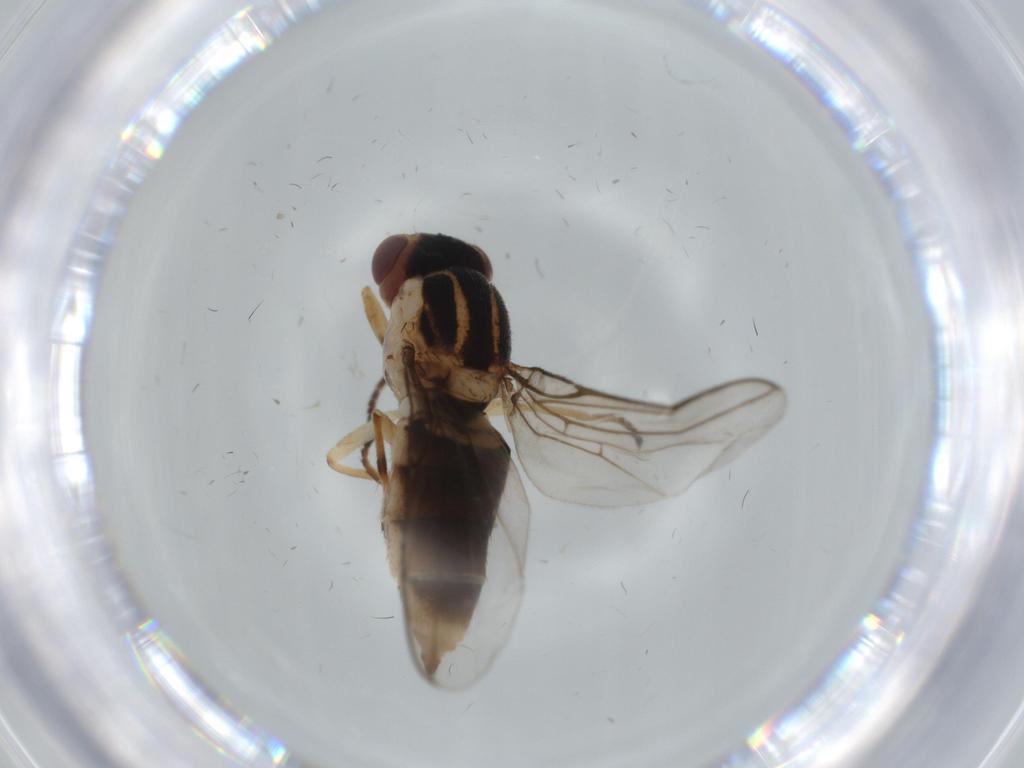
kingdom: Animalia
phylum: Arthropoda
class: Insecta
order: Diptera
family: Chloropidae
